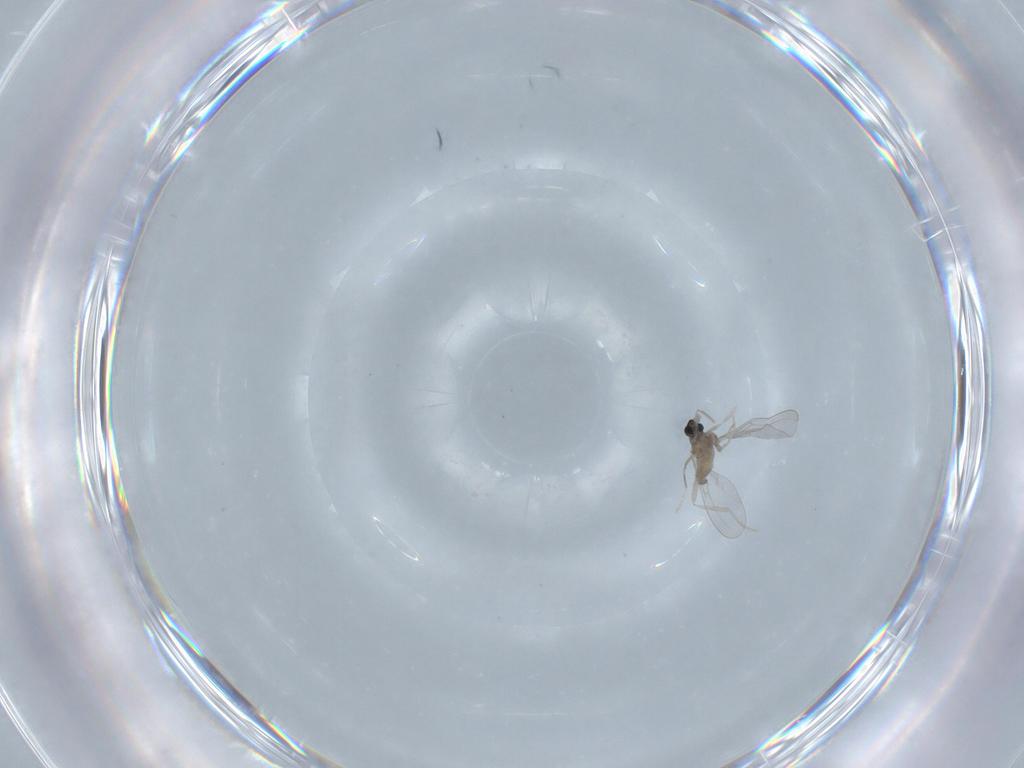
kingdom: Animalia
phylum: Arthropoda
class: Insecta
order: Diptera
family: Cecidomyiidae
